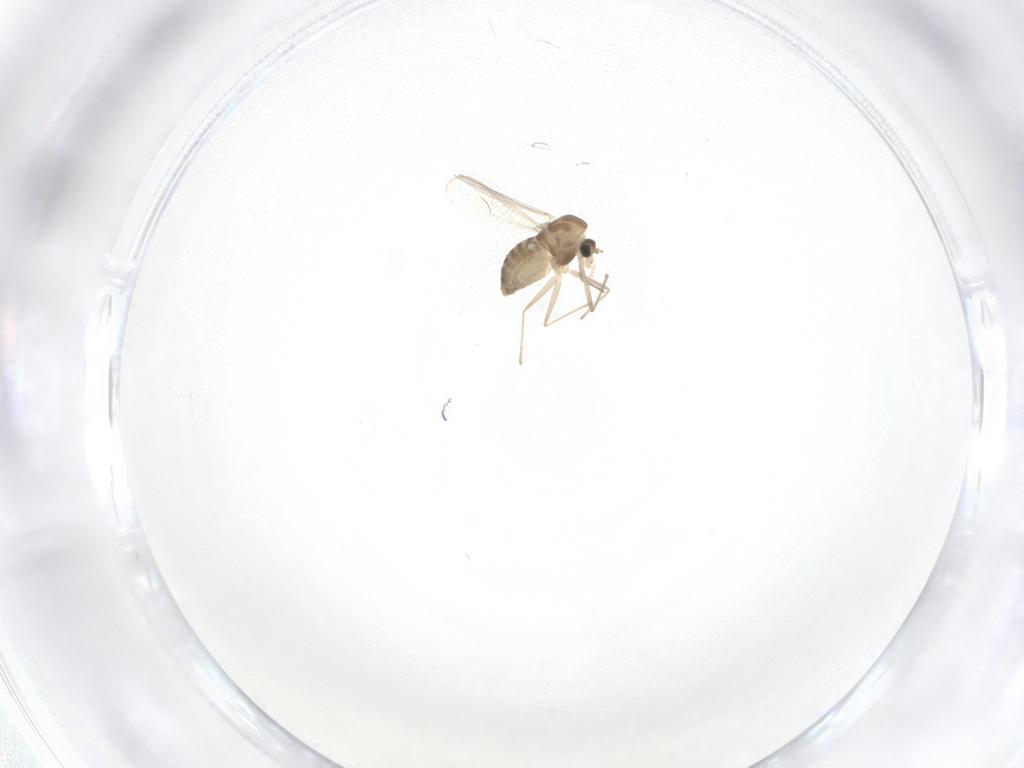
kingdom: Animalia
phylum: Arthropoda
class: Insecta
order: Diptera
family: Chironomidae
